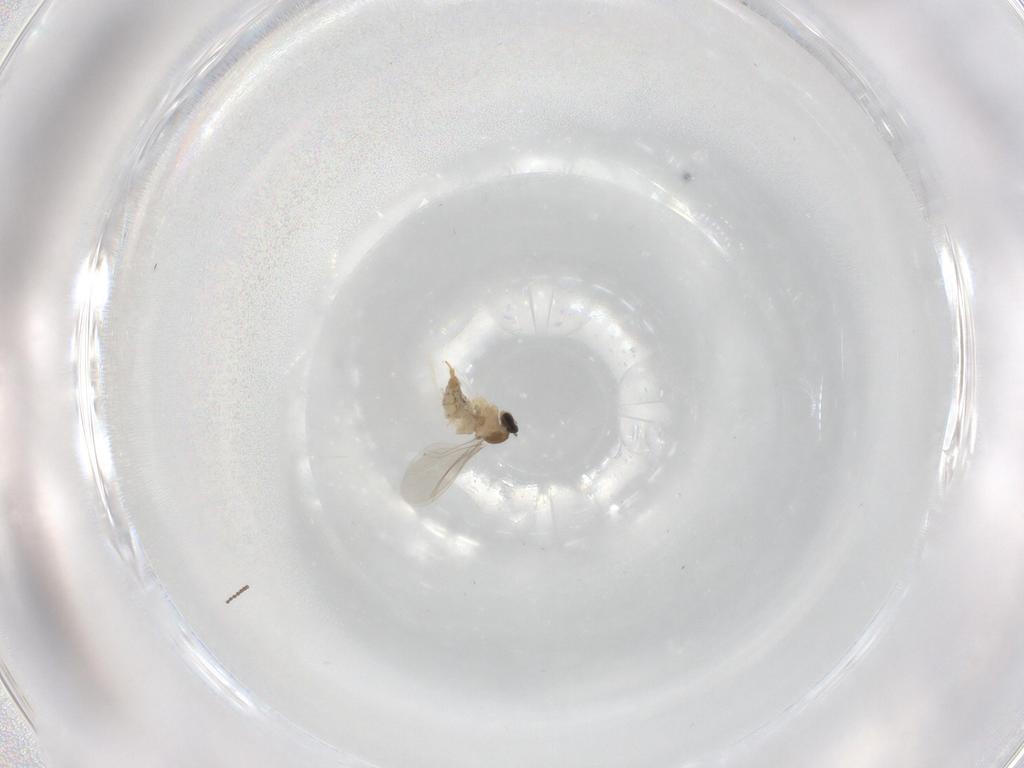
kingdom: Animalia
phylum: Arthropoda
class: Insecta
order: Diptera
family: Cecidomyiidae
